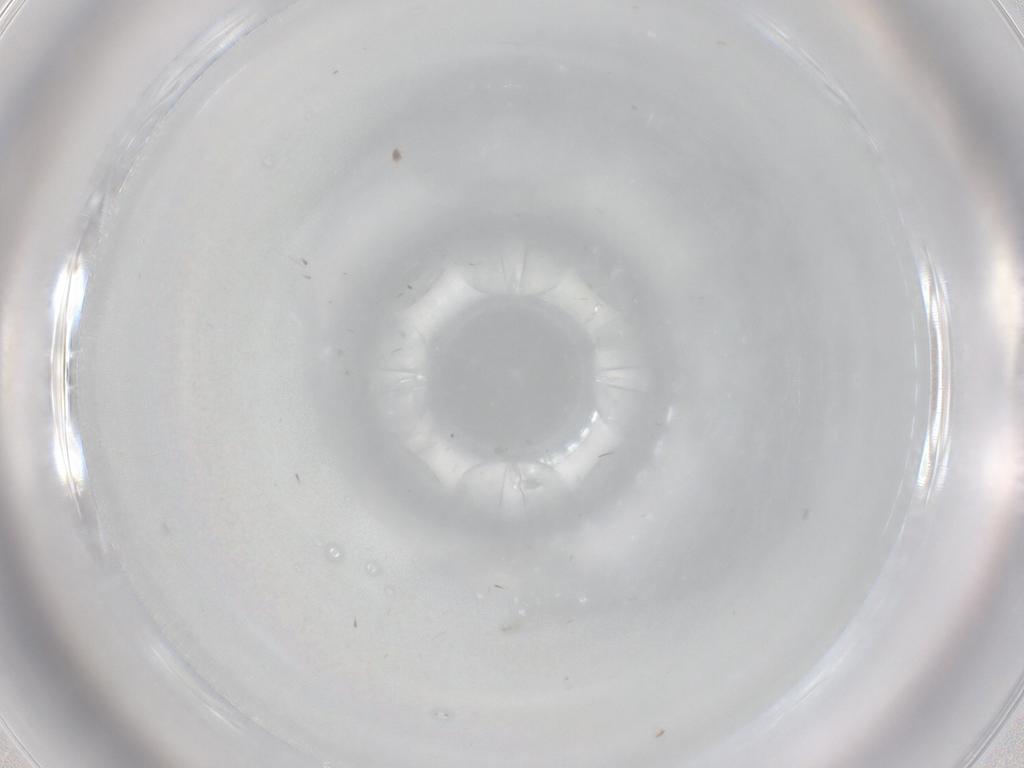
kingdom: Animalia
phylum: Arthropoda
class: Insecta
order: Diptera
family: Cecidomyiidae
